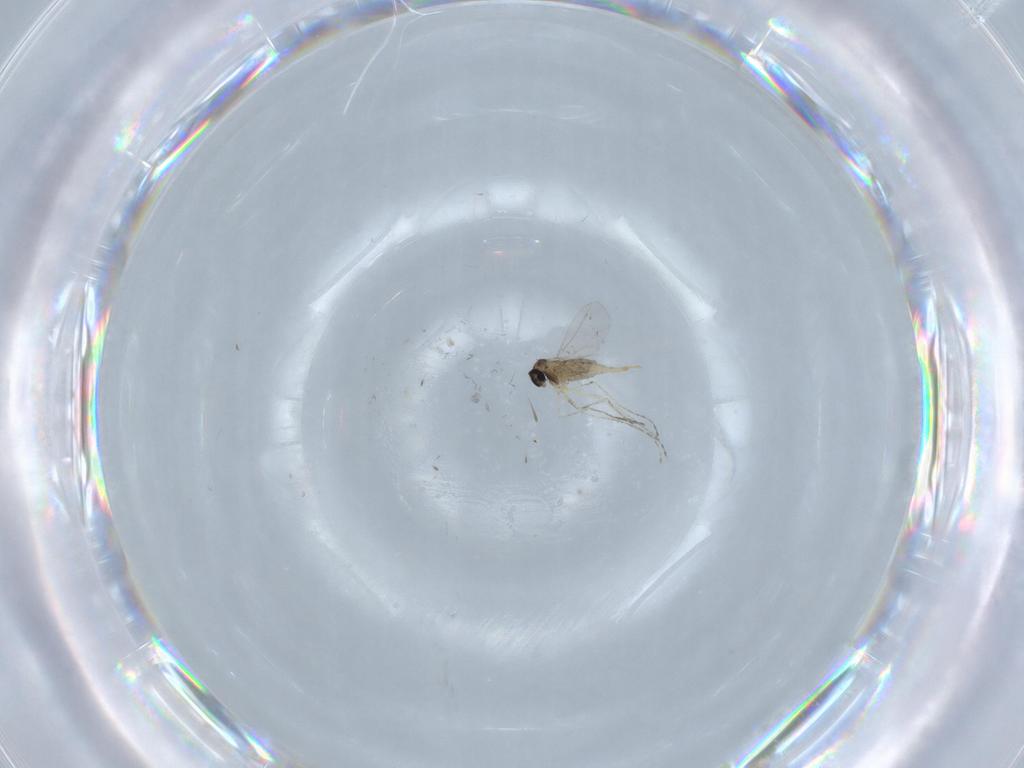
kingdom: Animalia
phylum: Arthropoda
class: Insecta
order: Diptera
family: Cecidomyiidae
